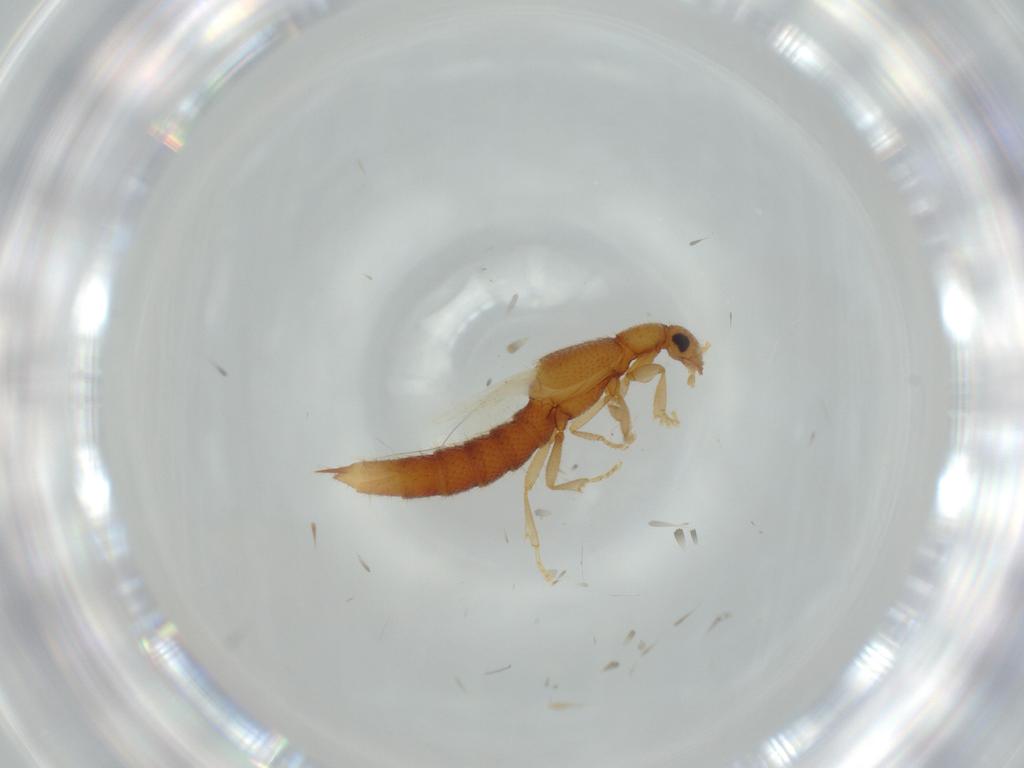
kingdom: Animalia
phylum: Arthropoda
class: Insecta
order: Coleoptera
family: Staphylinidae
